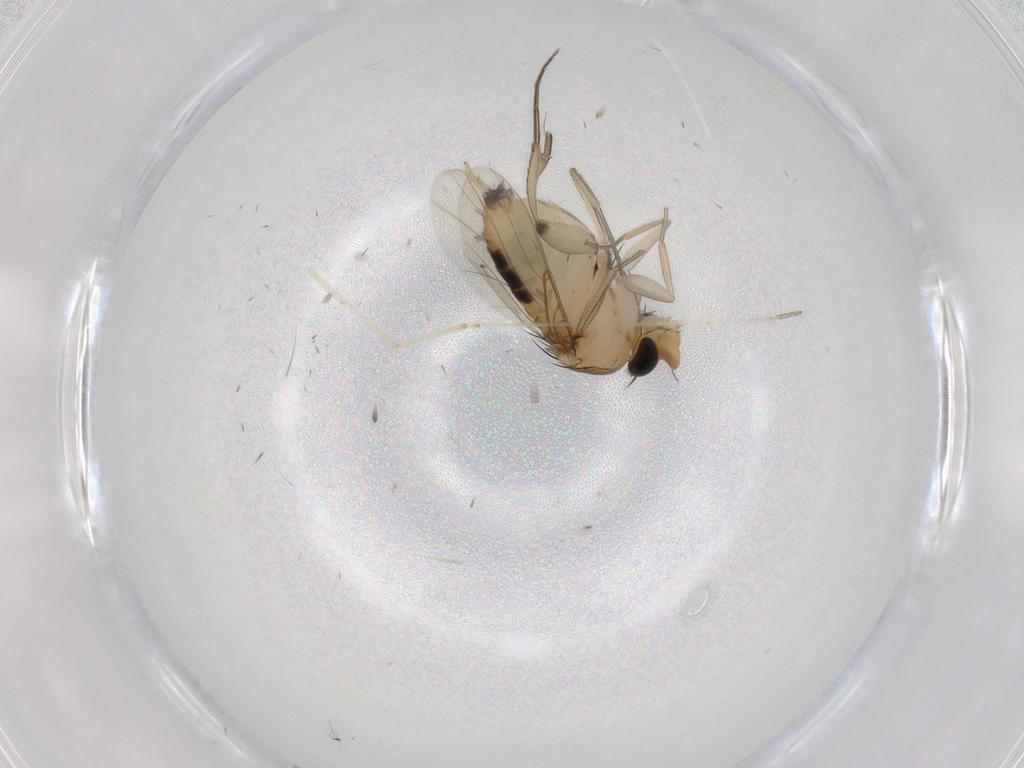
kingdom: Animalia
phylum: Arthropoda
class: Insecta
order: Diptera
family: Phoridae
